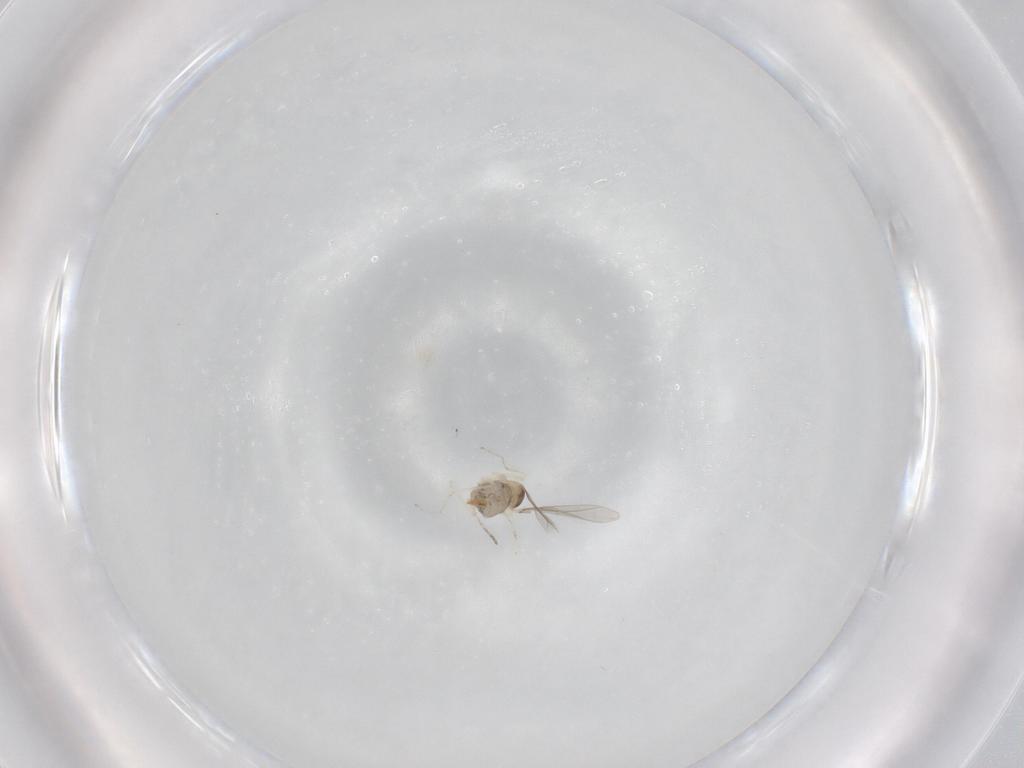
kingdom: Animalia
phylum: Arthropoda
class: Insecta
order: Diptera
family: Cecidomyiidae
